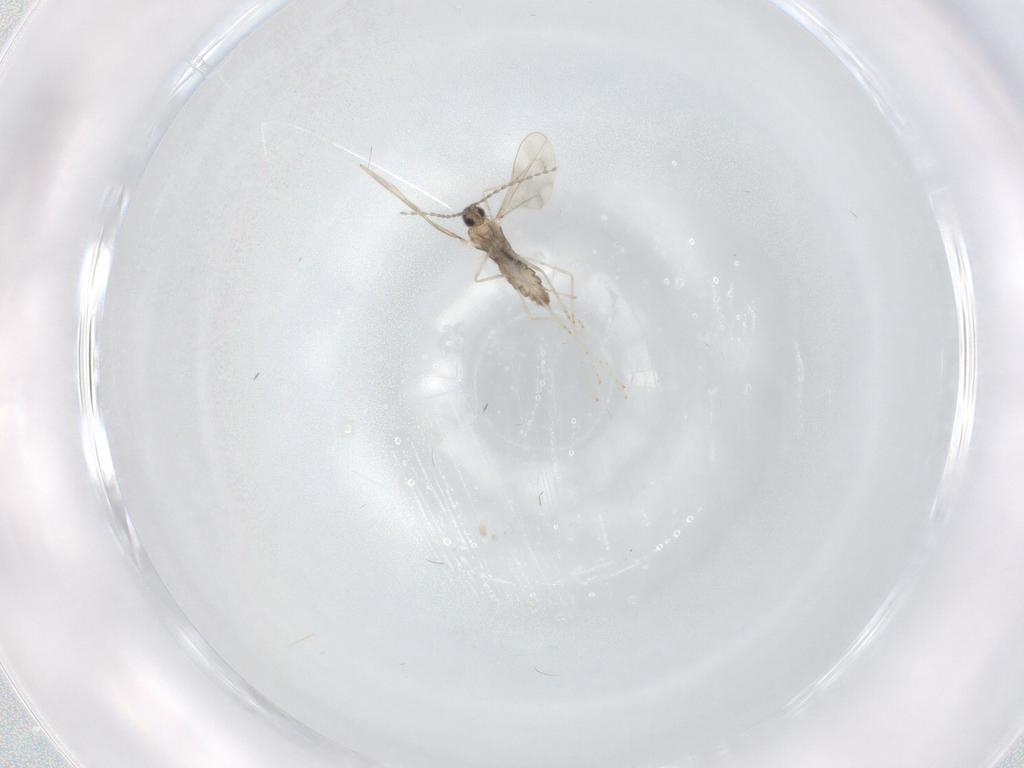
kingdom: Animalia
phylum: Arthropoda
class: Insecta
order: Diptera
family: Cecidomyiidae
